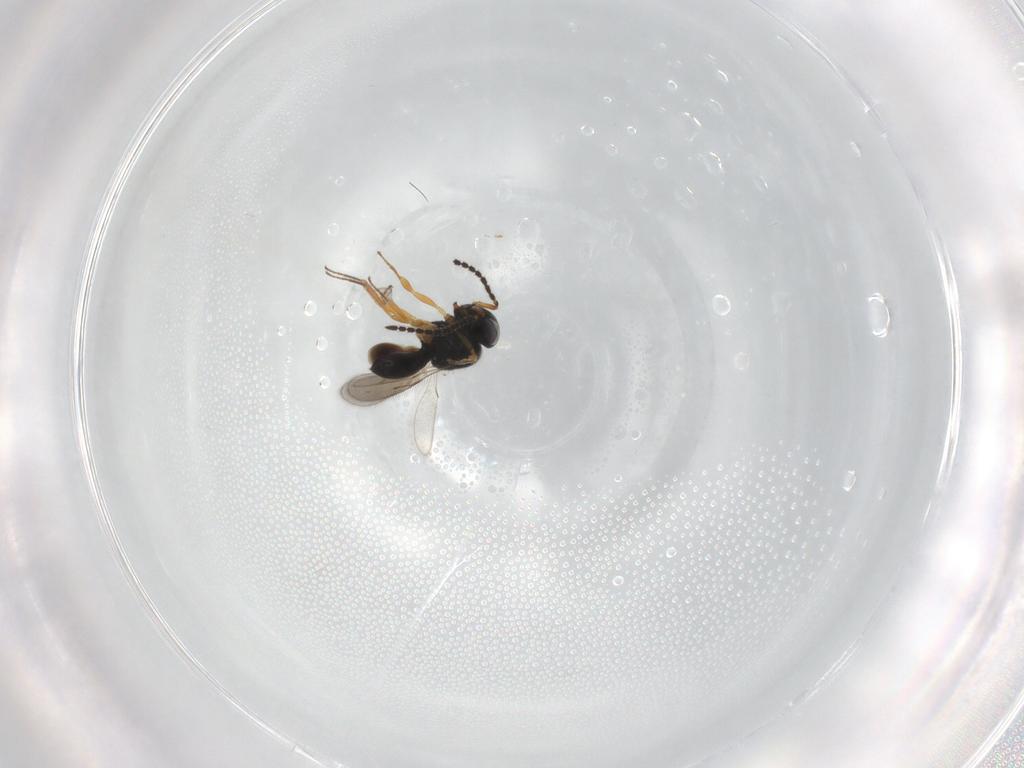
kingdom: Animalia
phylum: Arthropoda
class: Insecta
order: Hymenoptera
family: Scelionidae
